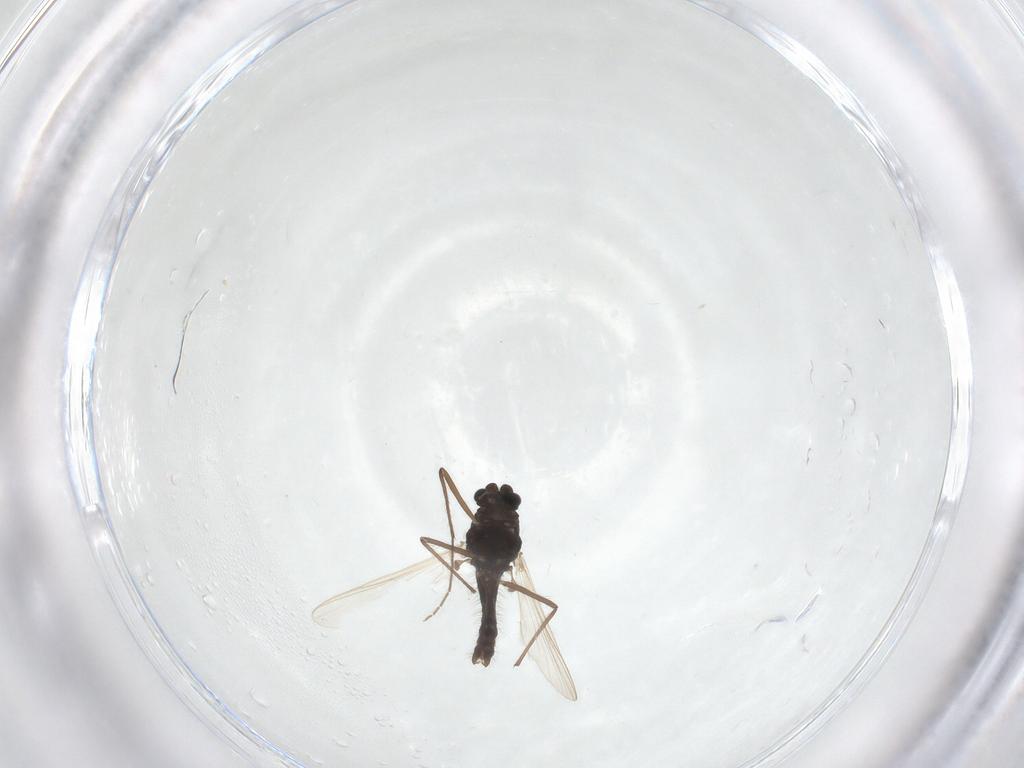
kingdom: Animalia
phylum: Arthropoda
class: Insecta
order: Diptera
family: Chironomidae
